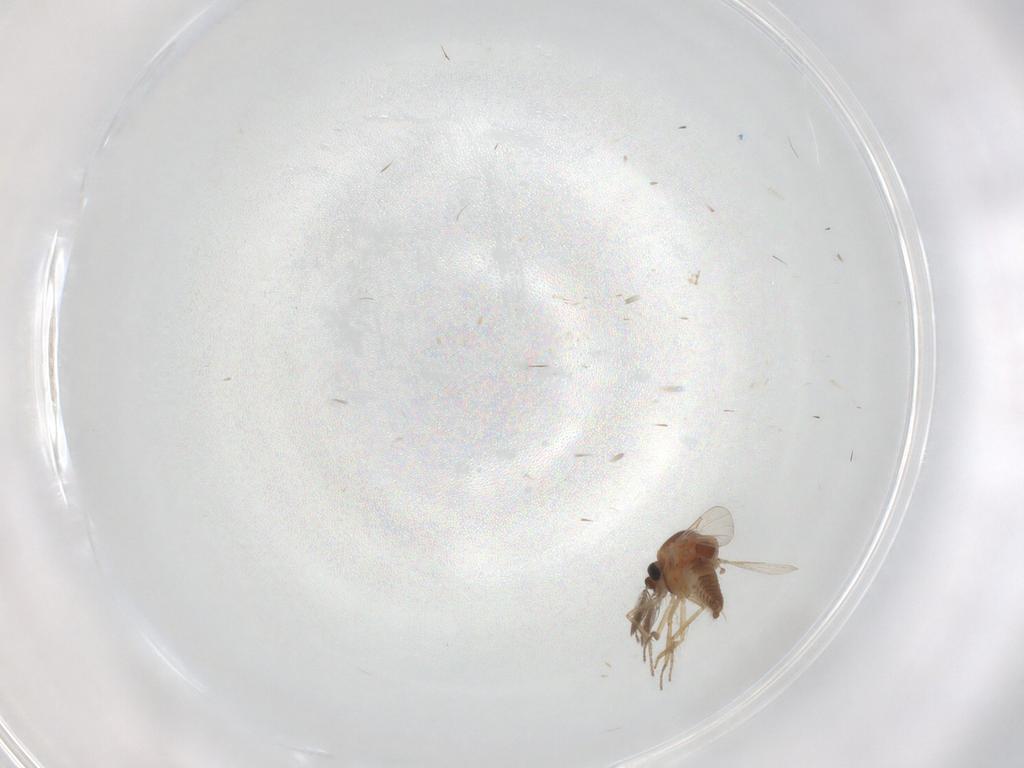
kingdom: Animalia
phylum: Arthropoda
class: Insecta
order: Diptera
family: Ceratopogonidae
